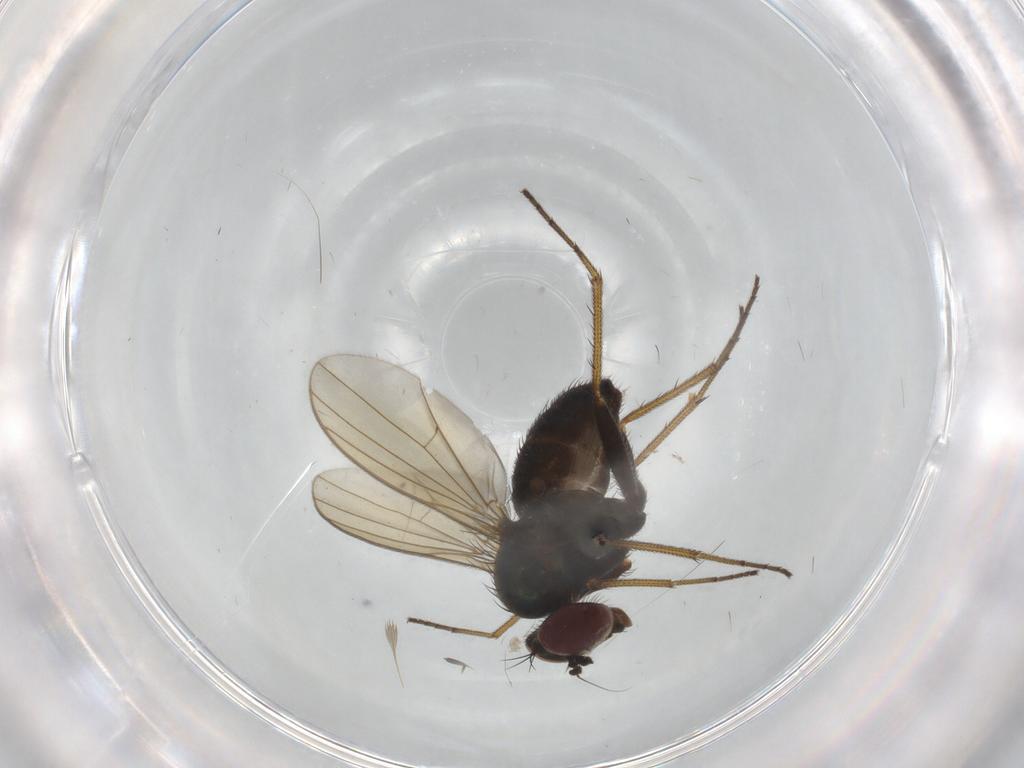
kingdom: Animalia
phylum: Arthropoda
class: Insecta
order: Diptera
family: Dolichopodidae
